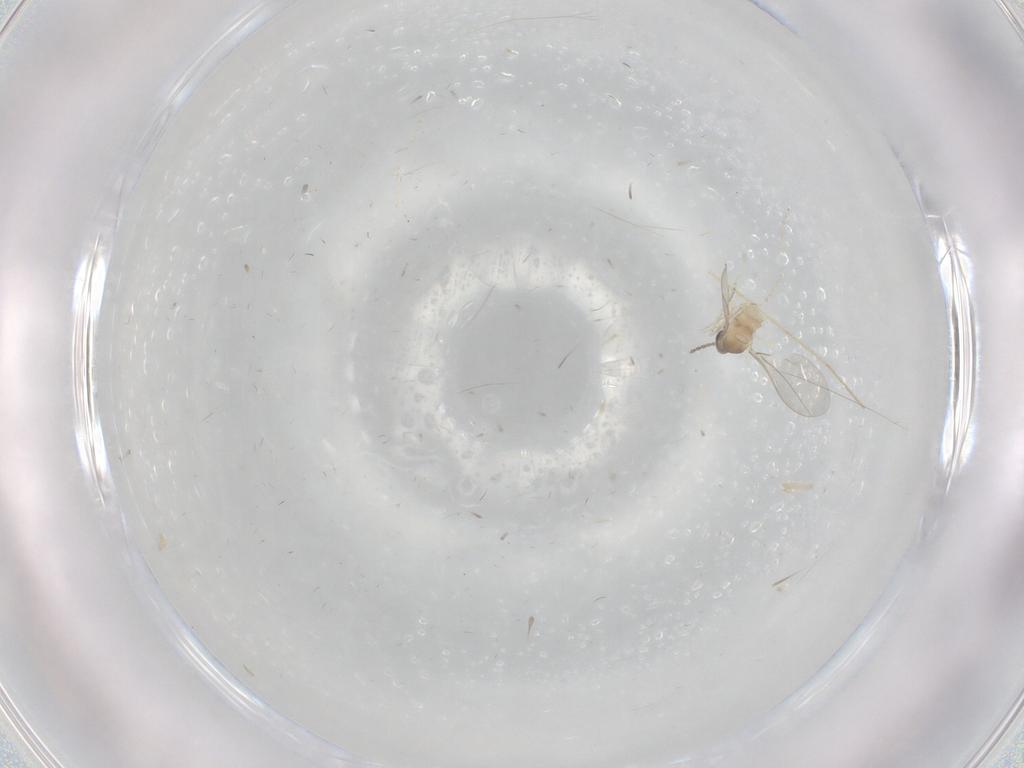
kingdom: Animalia
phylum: Arthropoda
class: Insecta
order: Diptera
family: Cecidomyiidae
